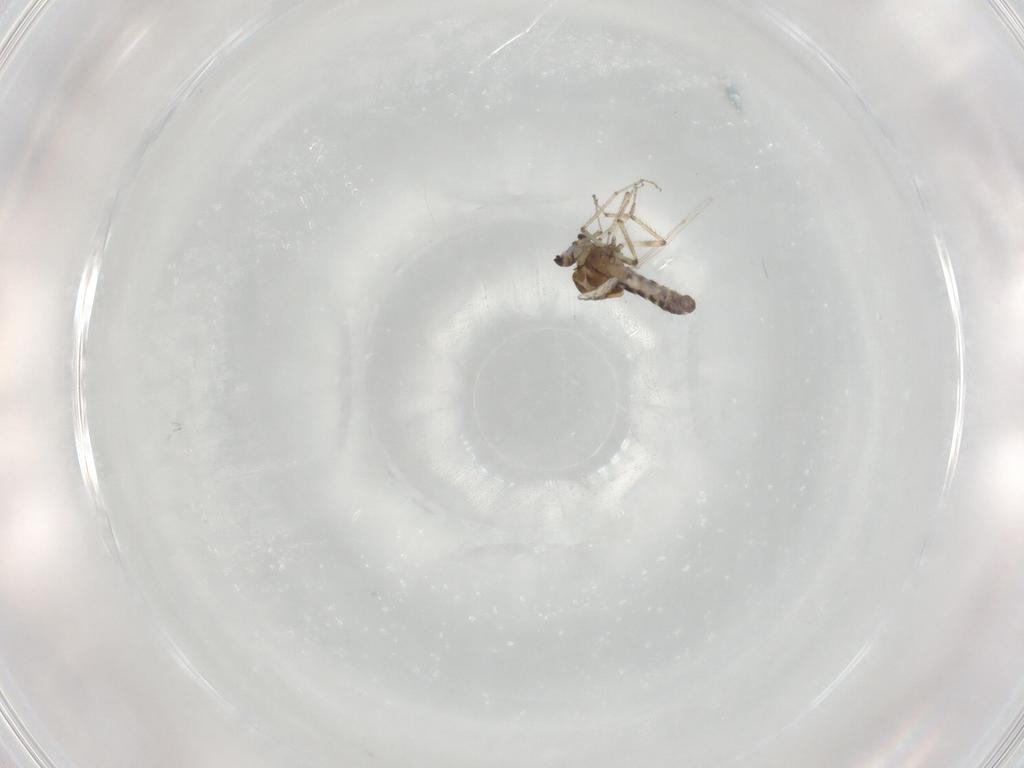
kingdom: Animalia
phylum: Arthropoda
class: Insecta
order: Diptera
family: Ceratopogonidae
